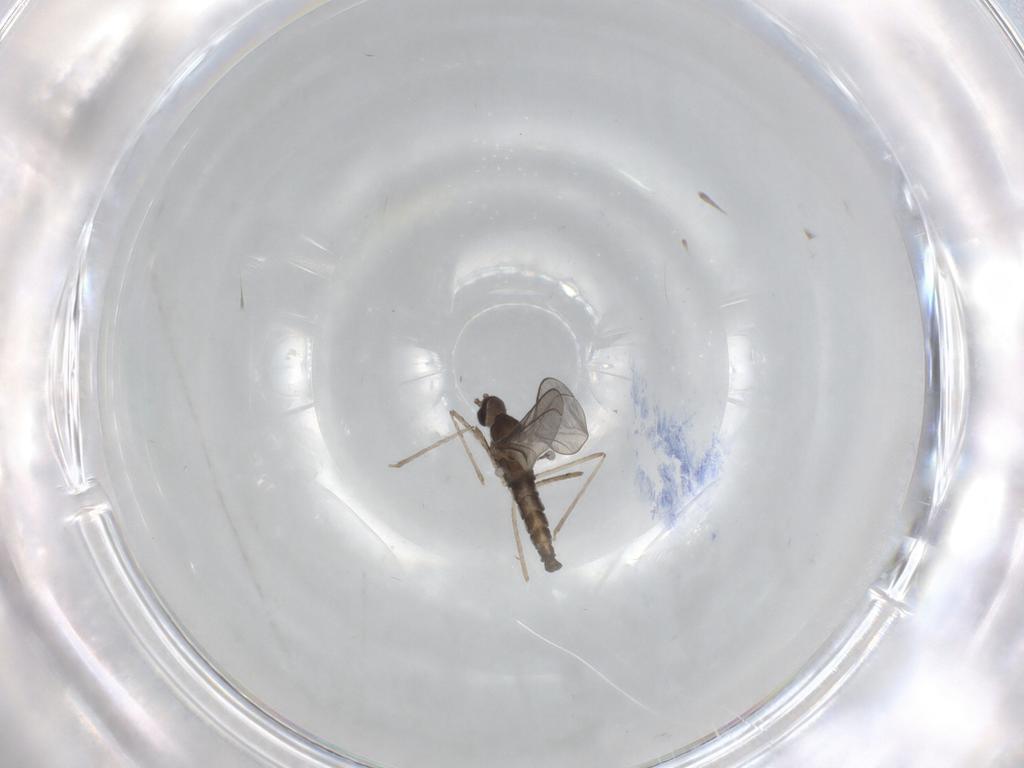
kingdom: Animalia
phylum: Arthropoda
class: Insecta
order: Diptera
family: Cecidomyiidae
